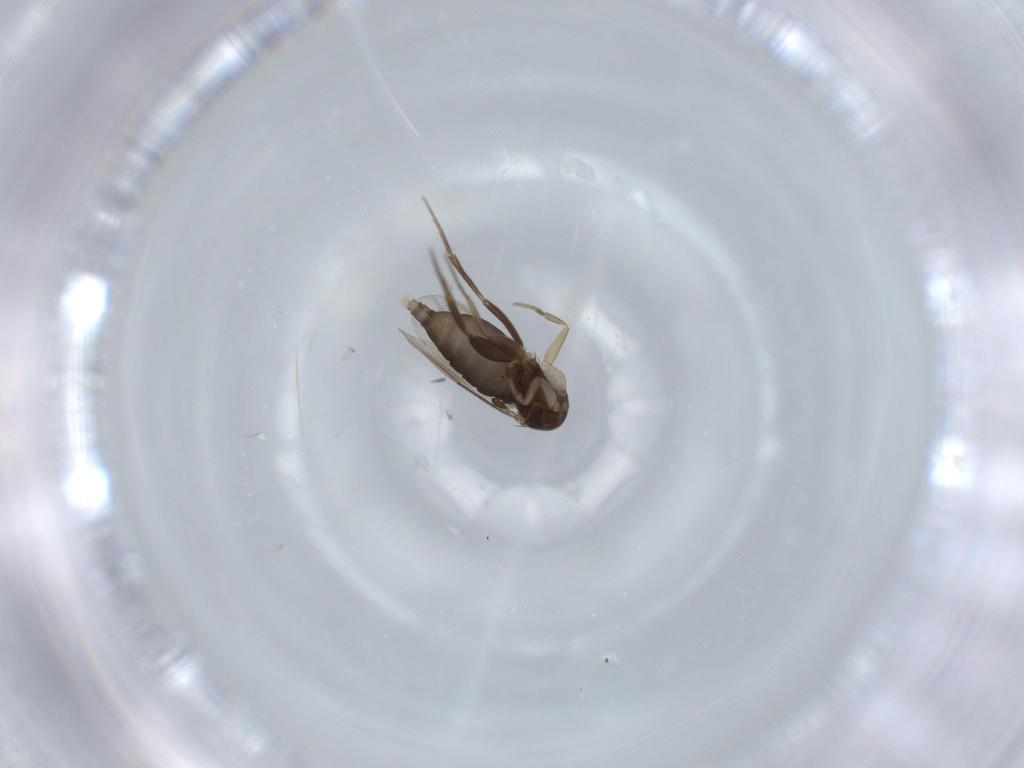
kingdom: Animalia
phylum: Arthropoda
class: Insecta
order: Diptera
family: Phoridae
